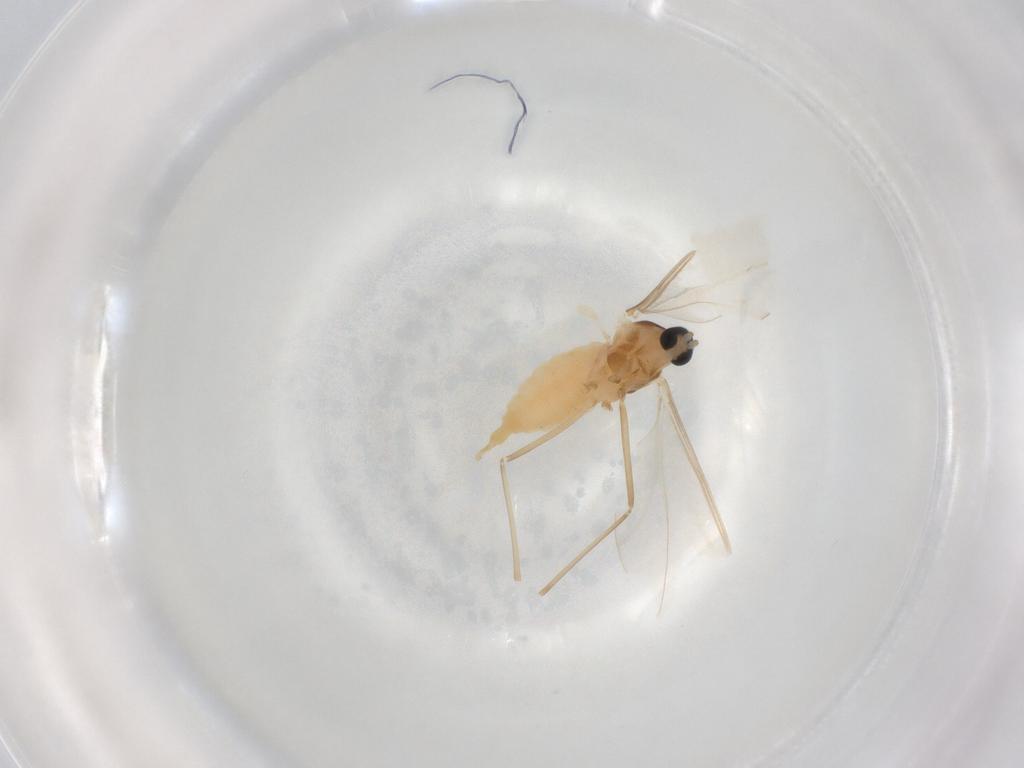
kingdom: Animalia
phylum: Arthropoda
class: Insecta
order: Diptera
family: Cecidomyiidae
